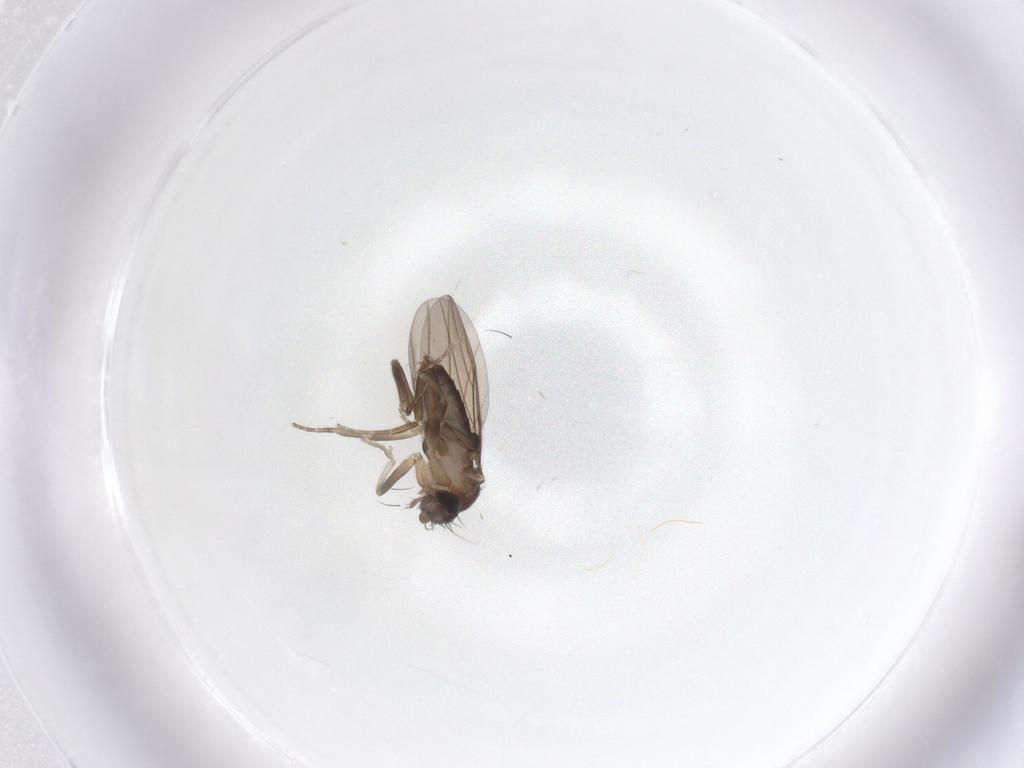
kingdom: Animalia
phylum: Arthropoda
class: Insecta
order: Diptera
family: Phoridae
